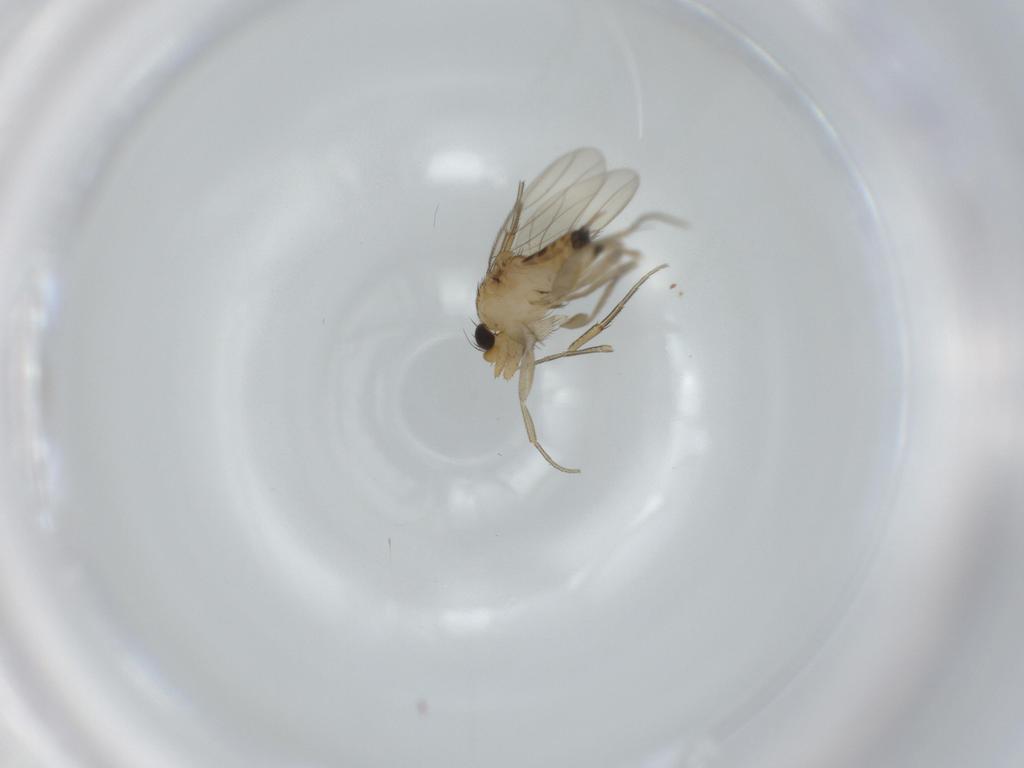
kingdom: Animalia
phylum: Arthropoda
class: Insecta
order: Diptera
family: Phoridae
